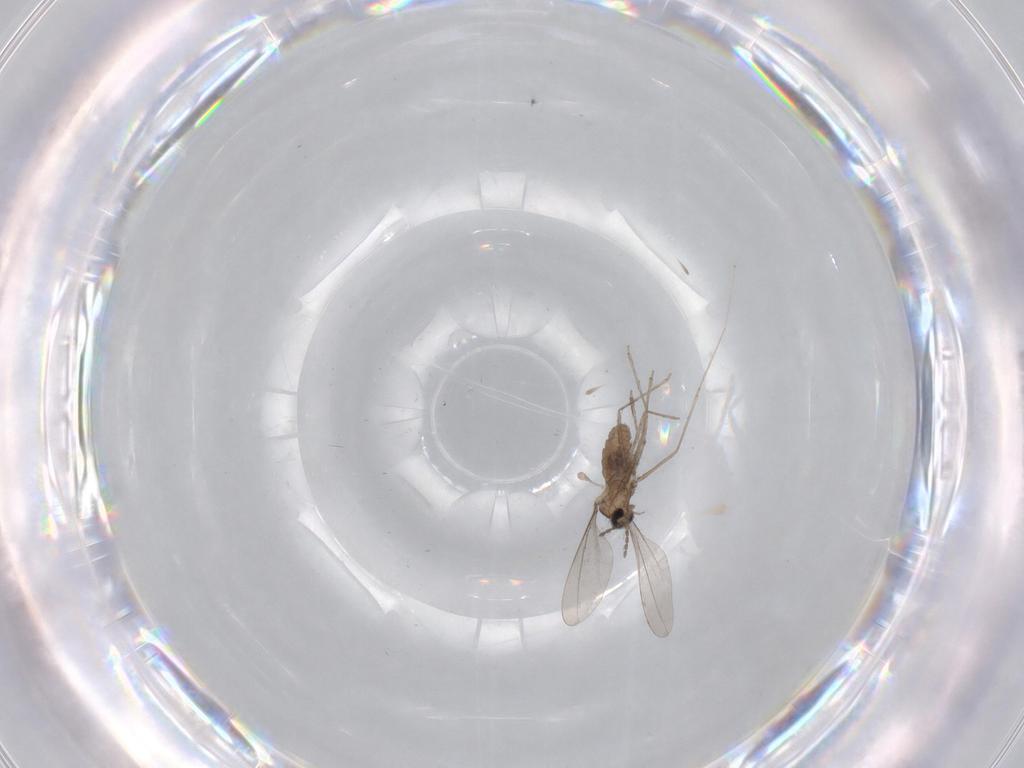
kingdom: Animalia
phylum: Arthropoda
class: Insecta
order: Diptera
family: Cecidomyiidae
